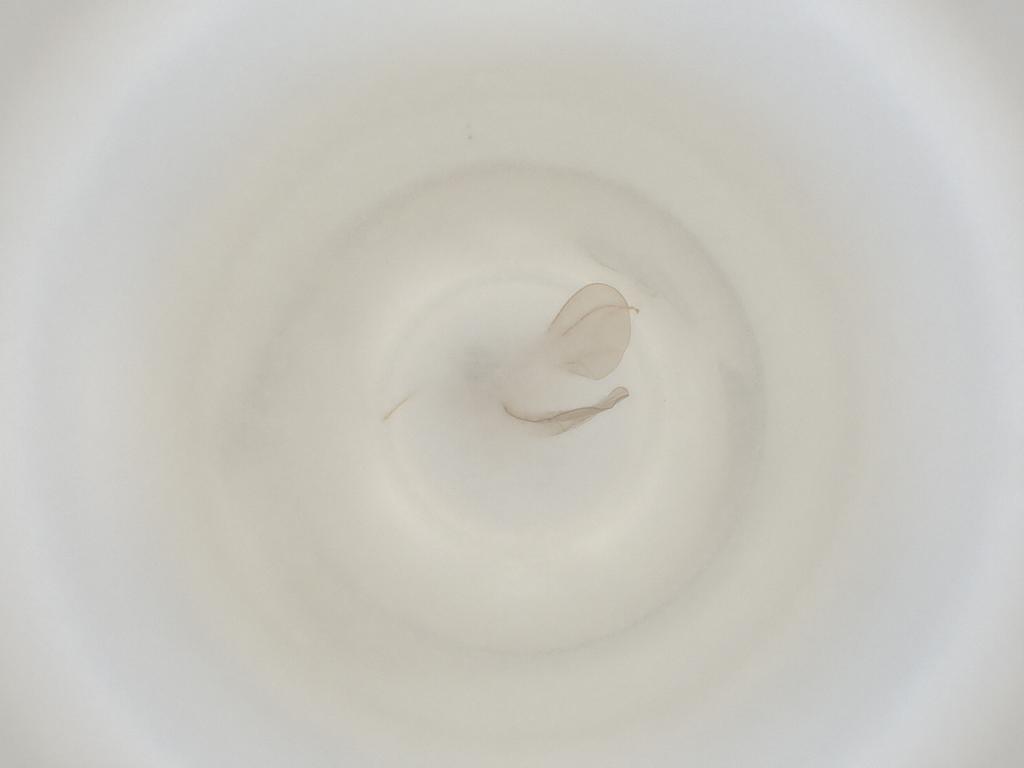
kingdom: Animalia
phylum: Arthropoda
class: Insecta
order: Diptera
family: Cecidomyiidae
